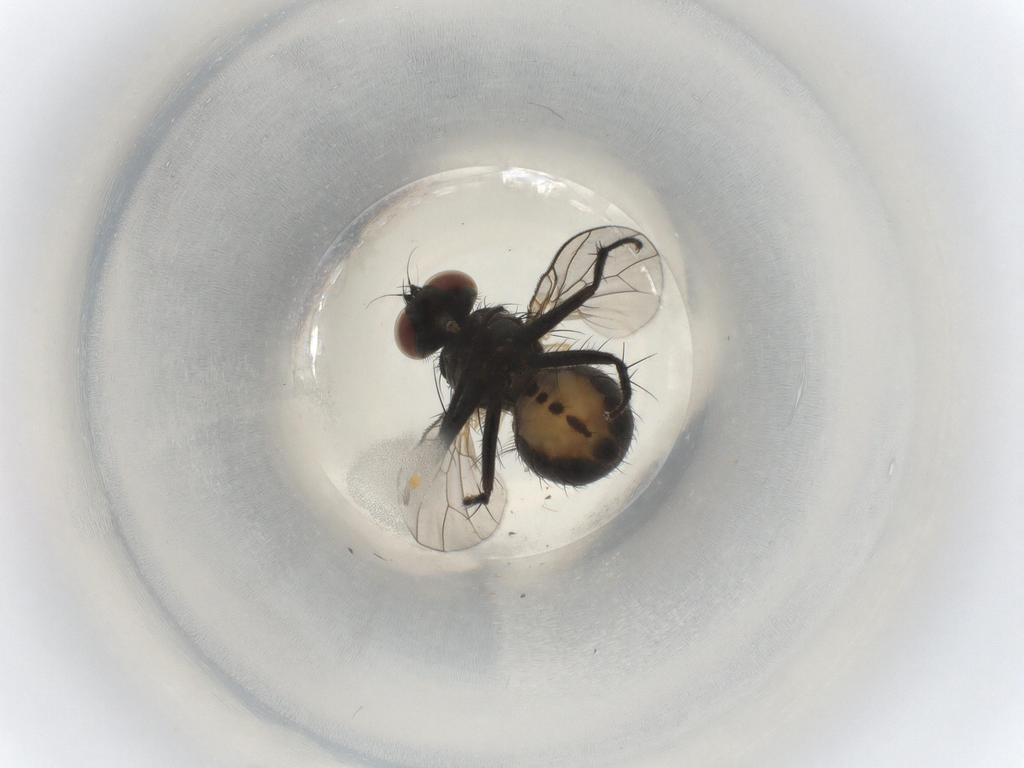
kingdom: Animalia
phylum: Arthropoda
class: Insecta
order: Diptera
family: Muscidae
